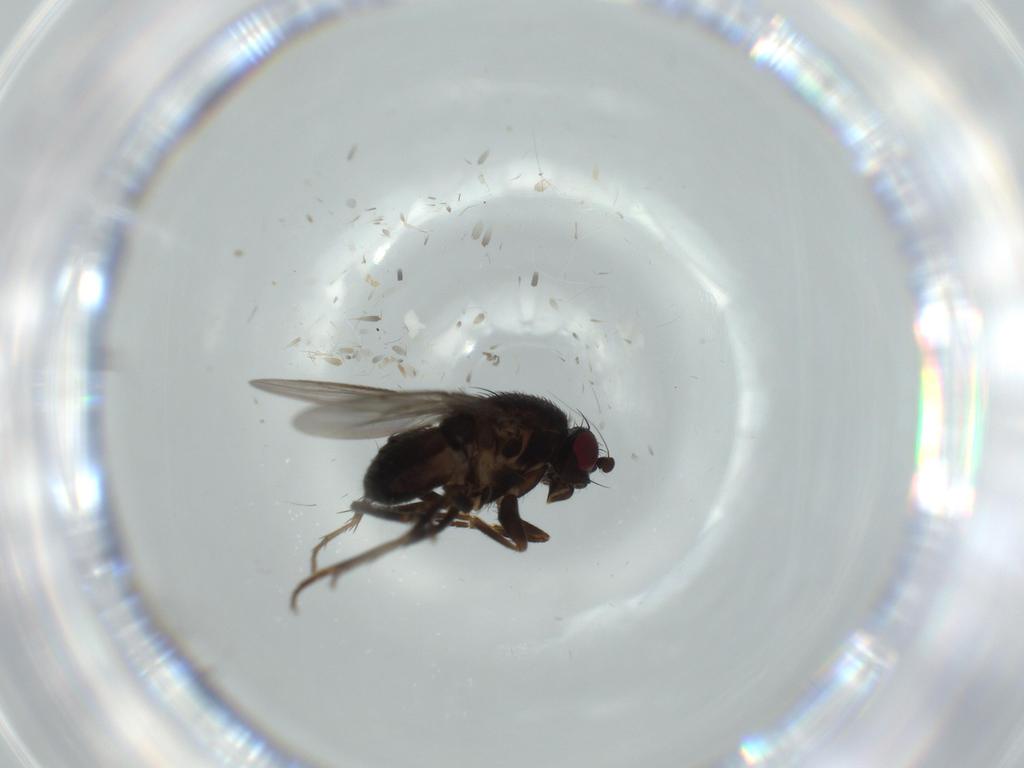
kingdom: Animalia
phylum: Arthropoda
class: Insecta
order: Diptera
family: Sphaeroceridae
